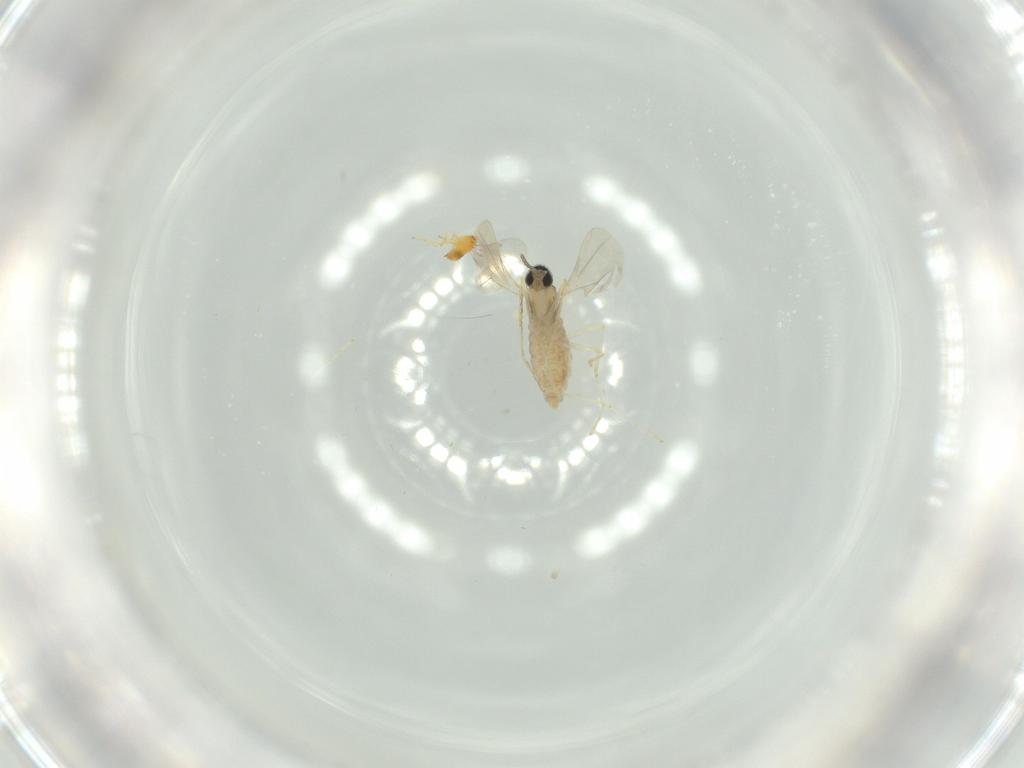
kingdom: Animalia
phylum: Arthropoda
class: Insecta
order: Diptera
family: Cecidomyiidae
